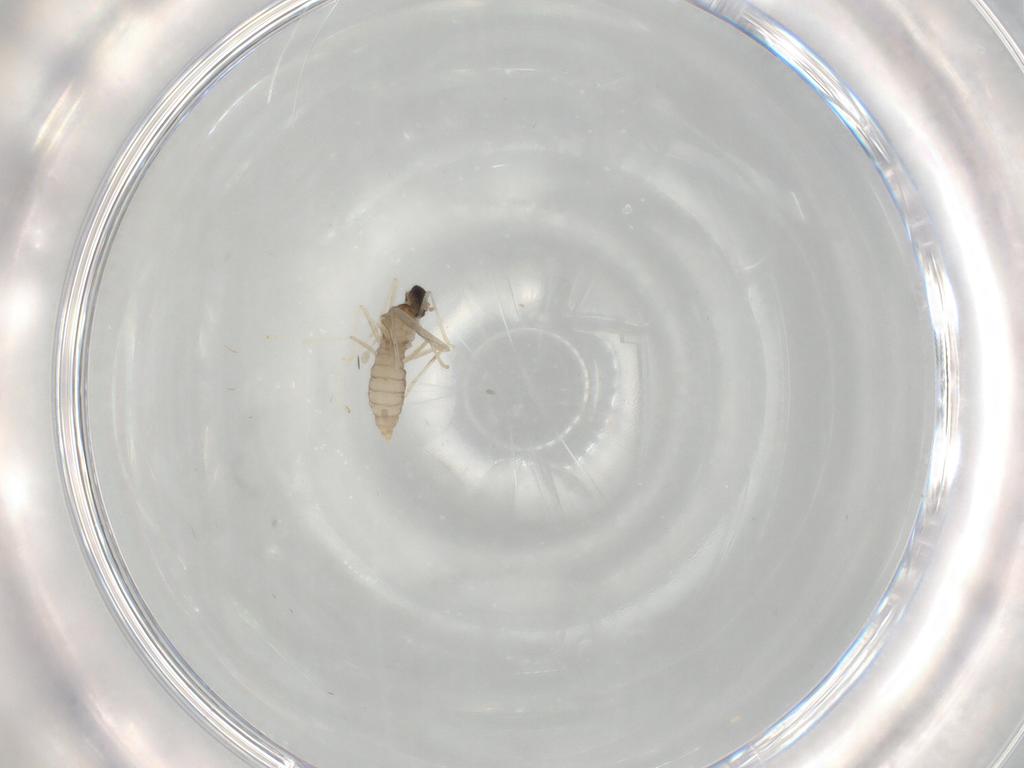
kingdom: Animalia
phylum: Arthropoda
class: Insecta
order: Diptera
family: Cecidomyiidae
